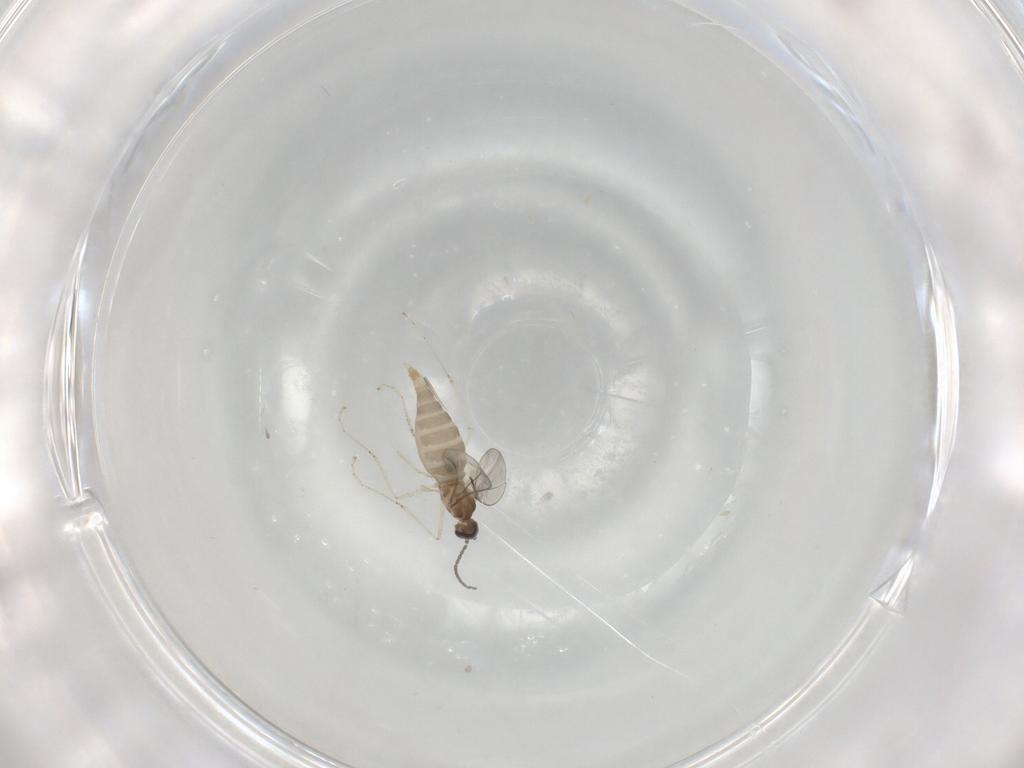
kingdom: Animalia
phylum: Arthropoda
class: Insecta
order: Diptera
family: Cecidomyiidae
